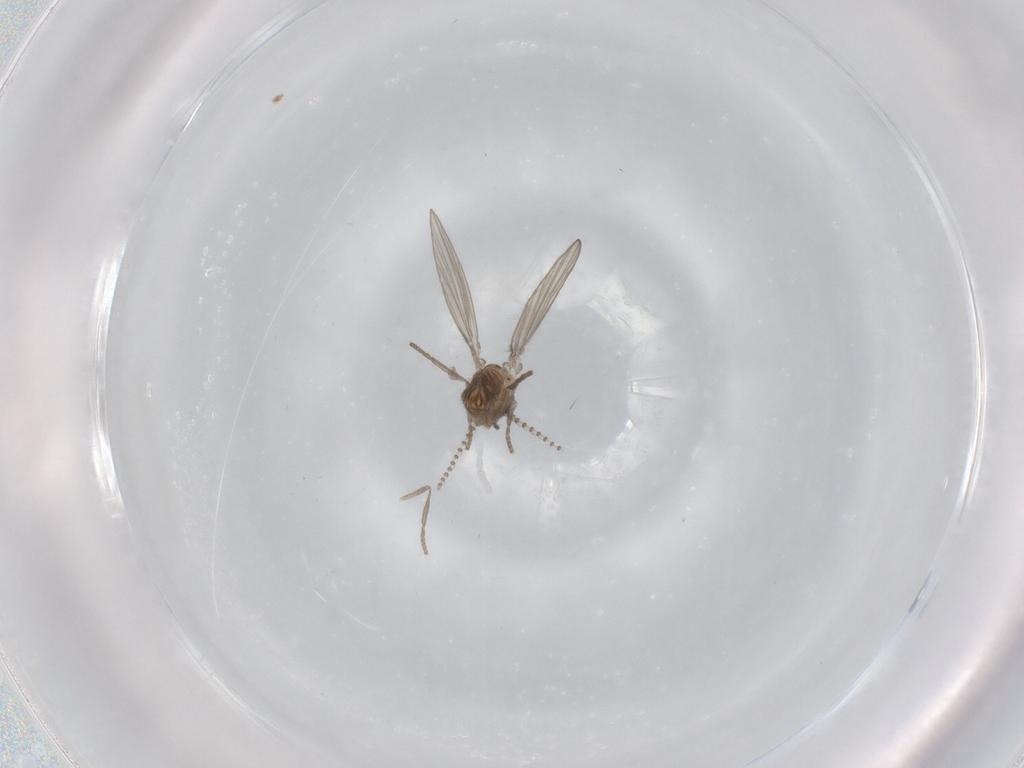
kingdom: Animalia
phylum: Arthropoda
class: Insecta
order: Diptera
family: Psychodidae
